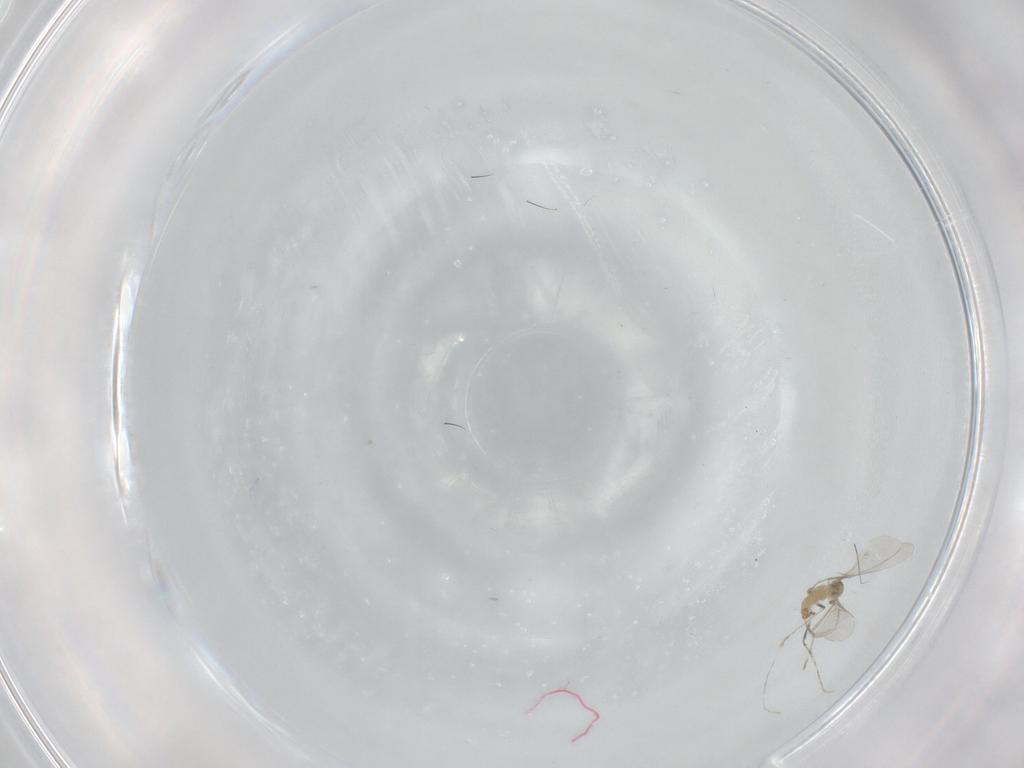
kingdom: Animalia
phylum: Arthropoda
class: Insecta
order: Diptera
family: Cecidomyiidae
